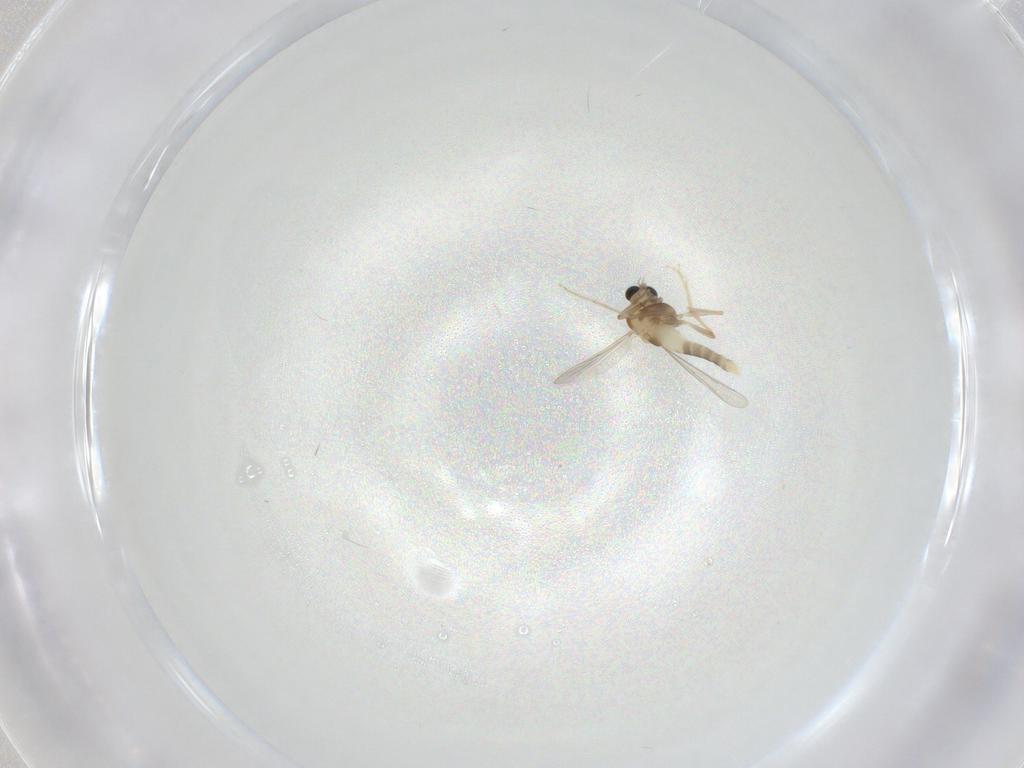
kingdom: Animalia
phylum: Arthropoda
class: Insecta
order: Diptera
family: Chironomidae
